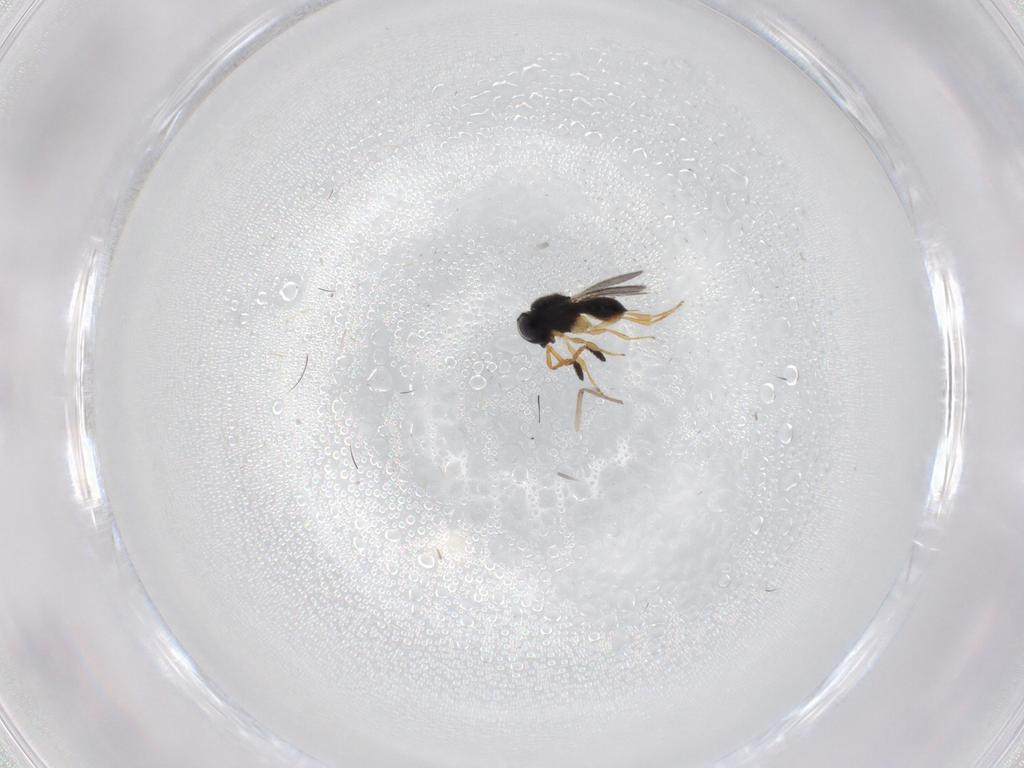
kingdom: Animalia
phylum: Arthropoda
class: Insecta
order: Hymenoptera
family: Scelionidae
